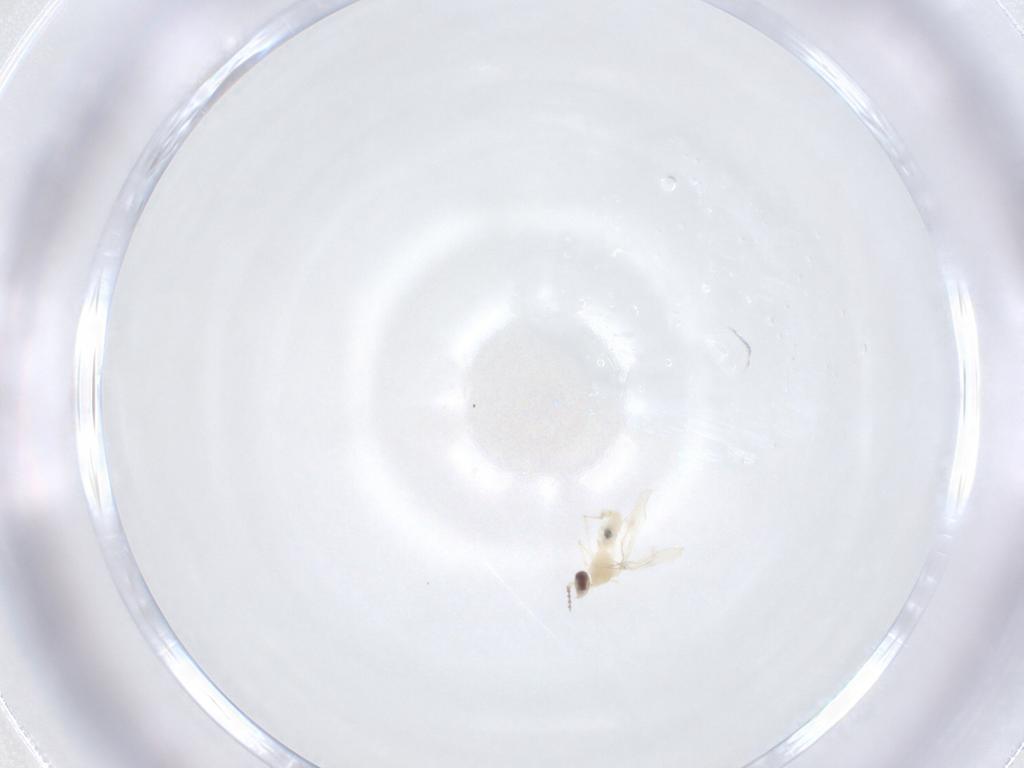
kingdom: Animalia
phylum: Arthropoda
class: Insecta
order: Diptera
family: Cecidomyiidae
